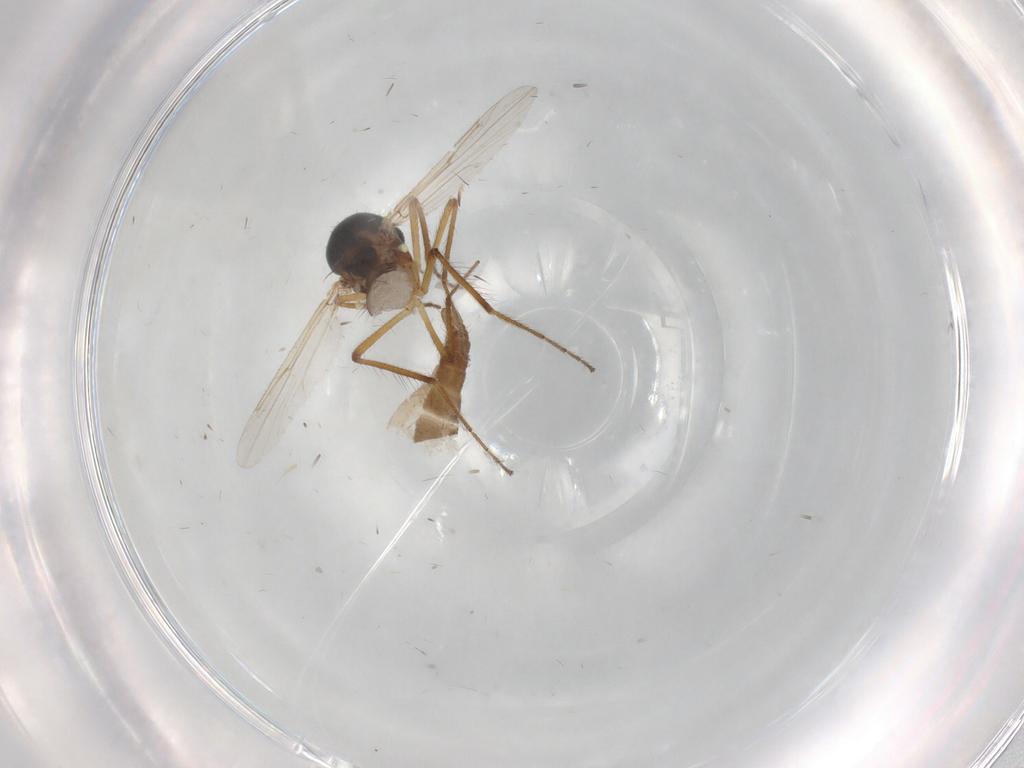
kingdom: Animalia
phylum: Arthropoda
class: Insecta
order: Diptera
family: Ceratopogonidae
